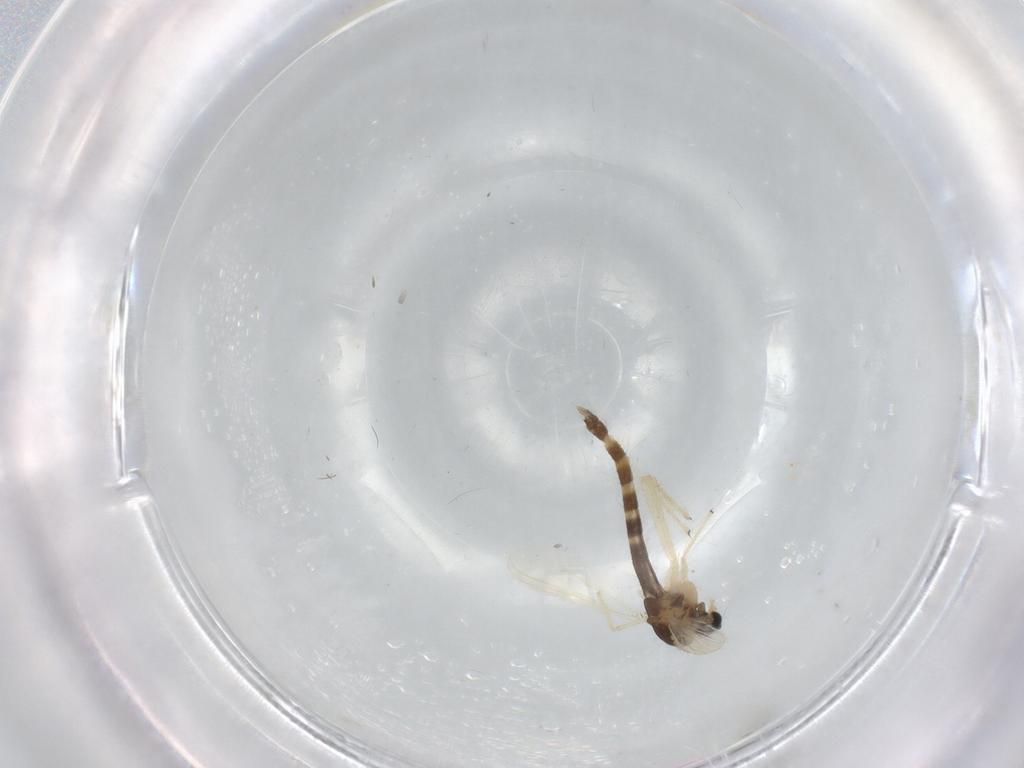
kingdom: Animalia
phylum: Arthropoda
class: Insecta
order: Diptera
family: Chironomidae
